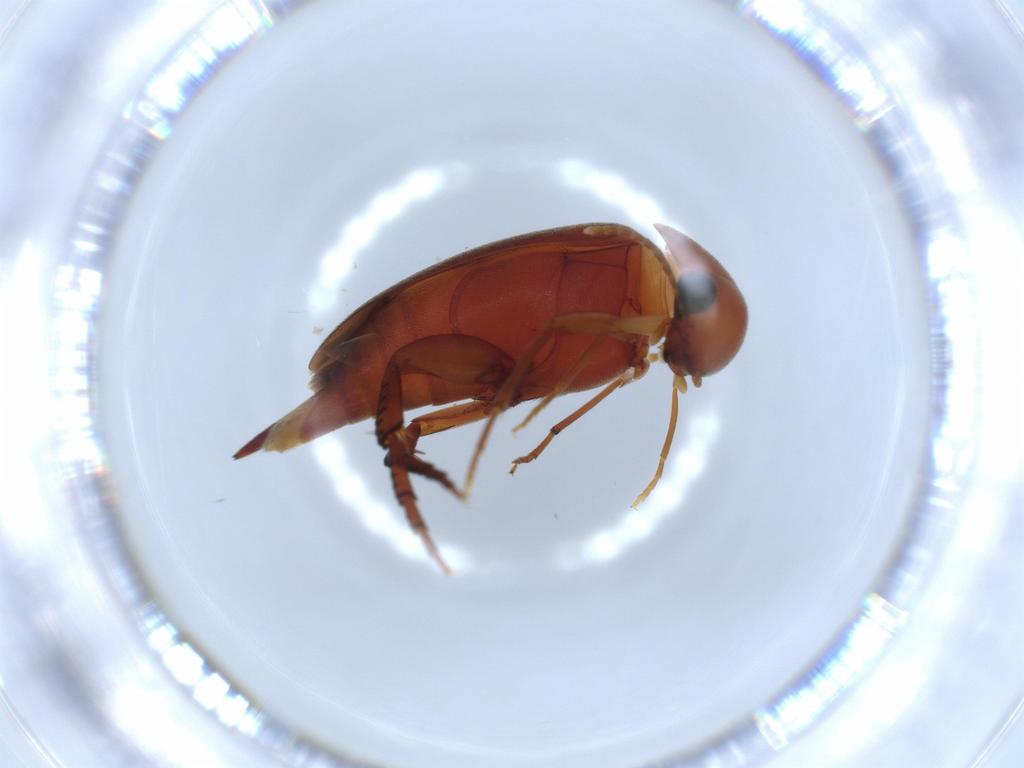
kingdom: Animalia
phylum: Arthropoda
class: Insecta
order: Coleoptera
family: Mordellidae
